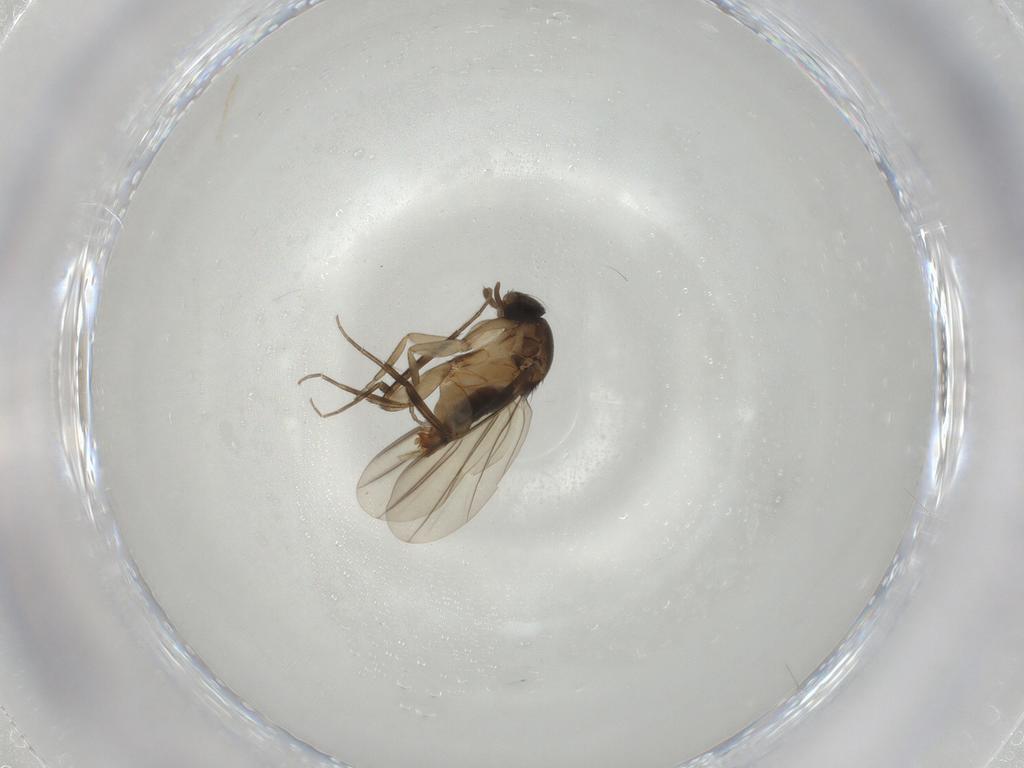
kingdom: Animalia
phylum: Arthropoda
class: Insecta
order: Diptera
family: Phoridae
